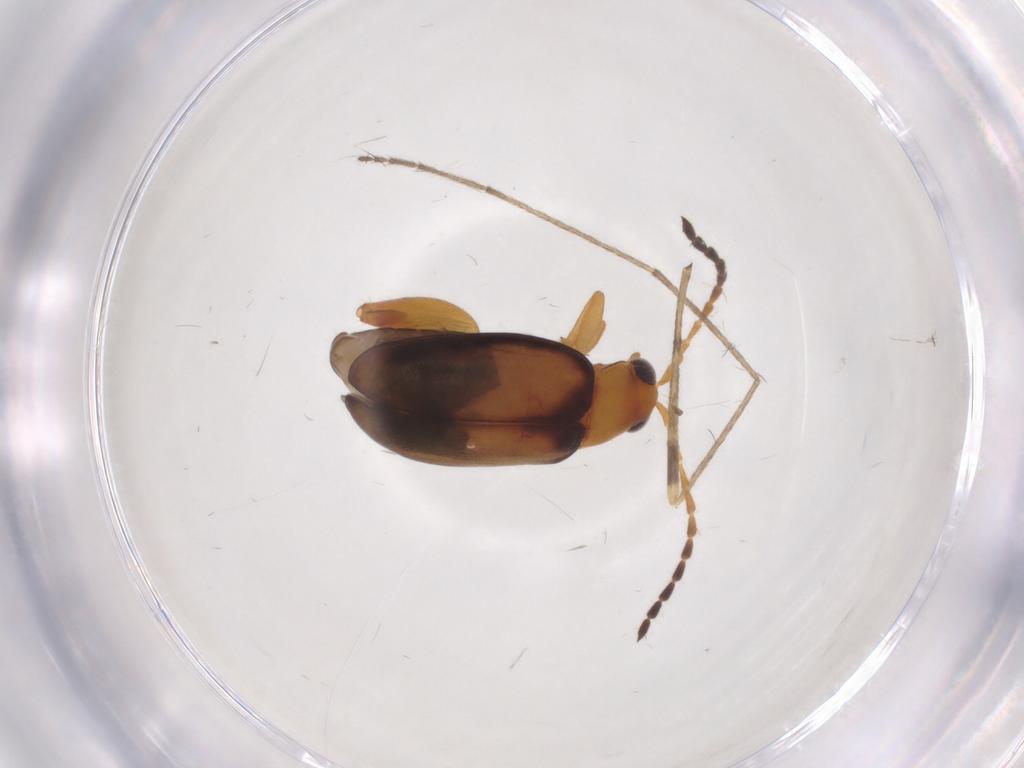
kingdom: Animalia
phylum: Arthropoda
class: Insecta
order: Coleoptera
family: Chrysomelidae
